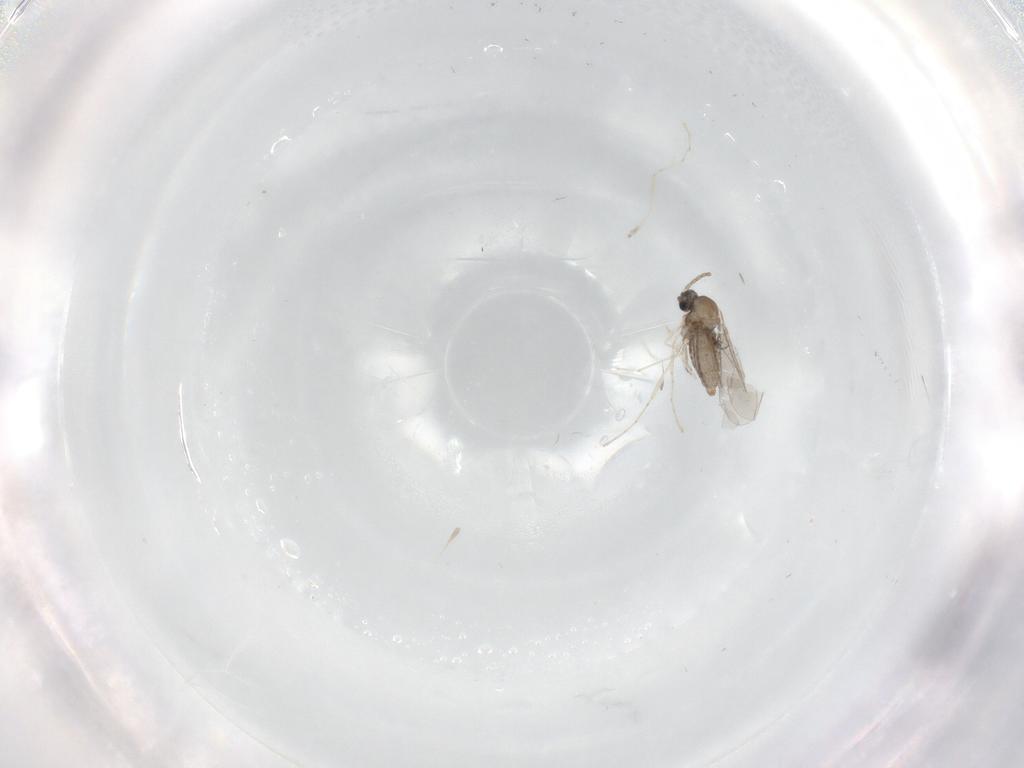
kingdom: Animalia
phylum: Arthropoda
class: Insecta
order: Diptera
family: Cecidomyiidae
